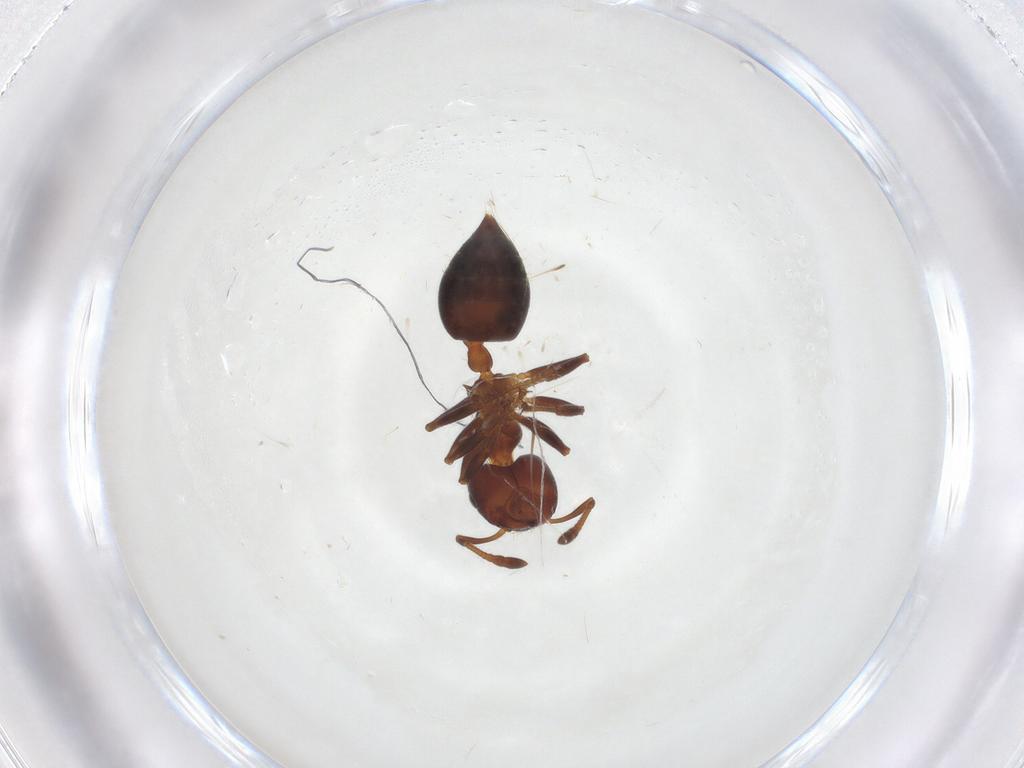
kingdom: Animalia
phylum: Arthropoda
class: Insecta
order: Hymenoptera
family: Formicidae
